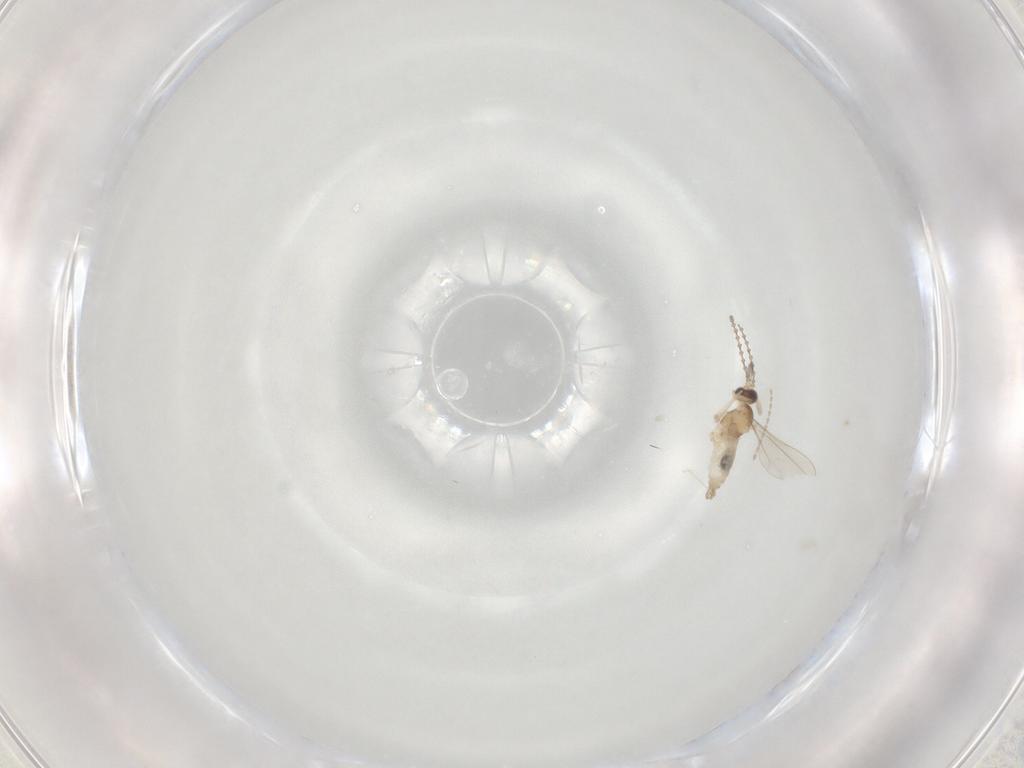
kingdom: Animalia
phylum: Arthropoda
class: Insecta
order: Diptera
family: Cecidomyiidae
